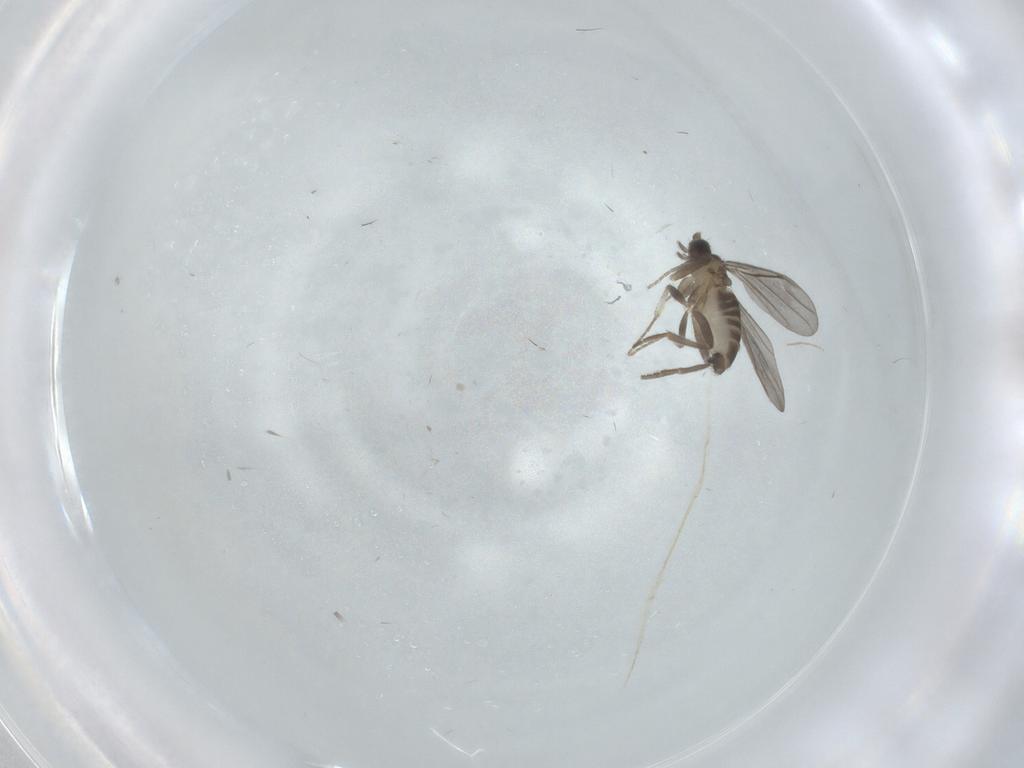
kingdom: Animalia
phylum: Arthropoda
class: Insecta
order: Diptera
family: Phoridae
